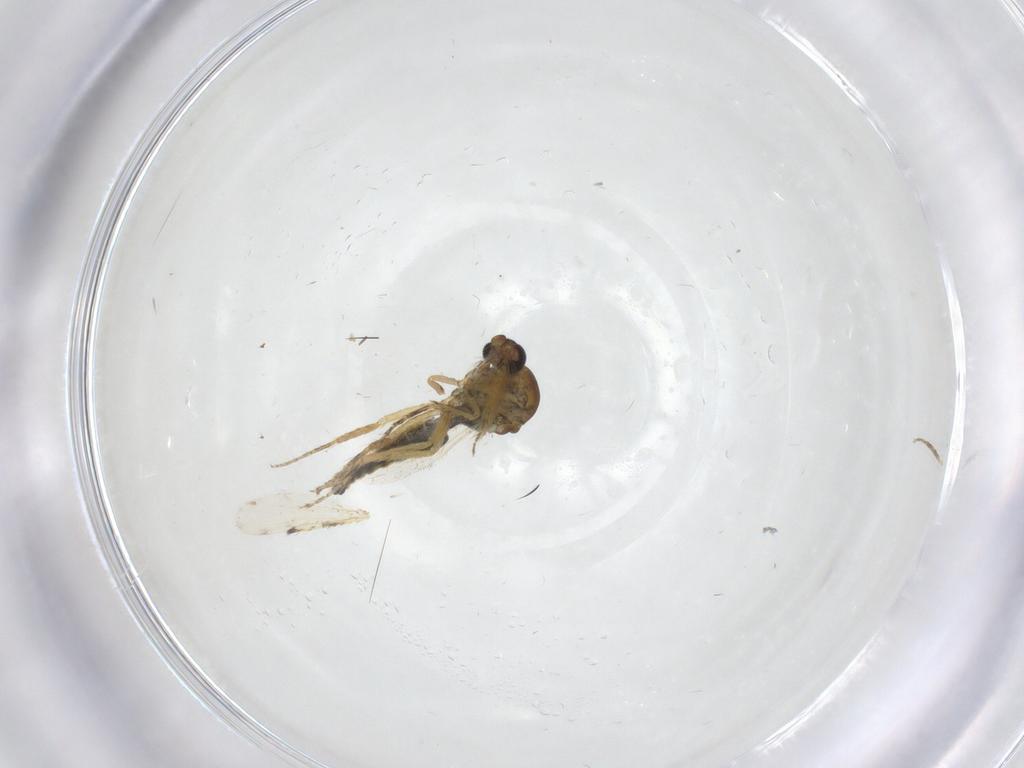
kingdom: Animalia
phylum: Arthropoda
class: Insecta
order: Diptera
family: Ceratopogonidae
